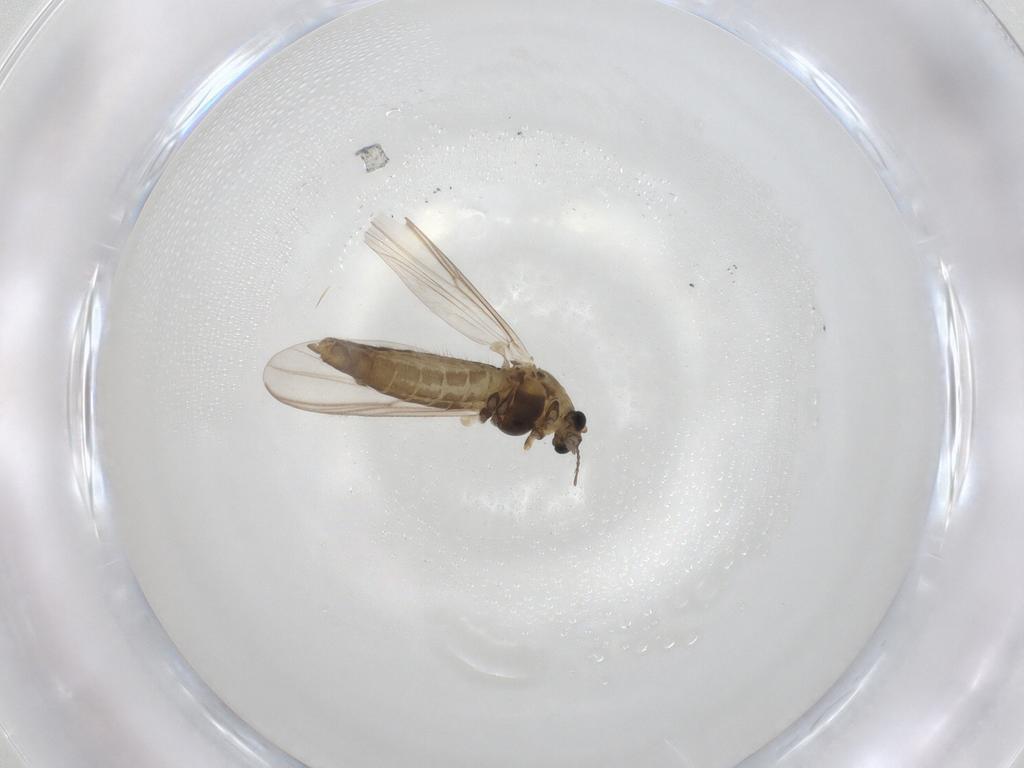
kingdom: Animalia
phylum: Arthropoda
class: Insecta
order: Diptera
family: Chironomidae
